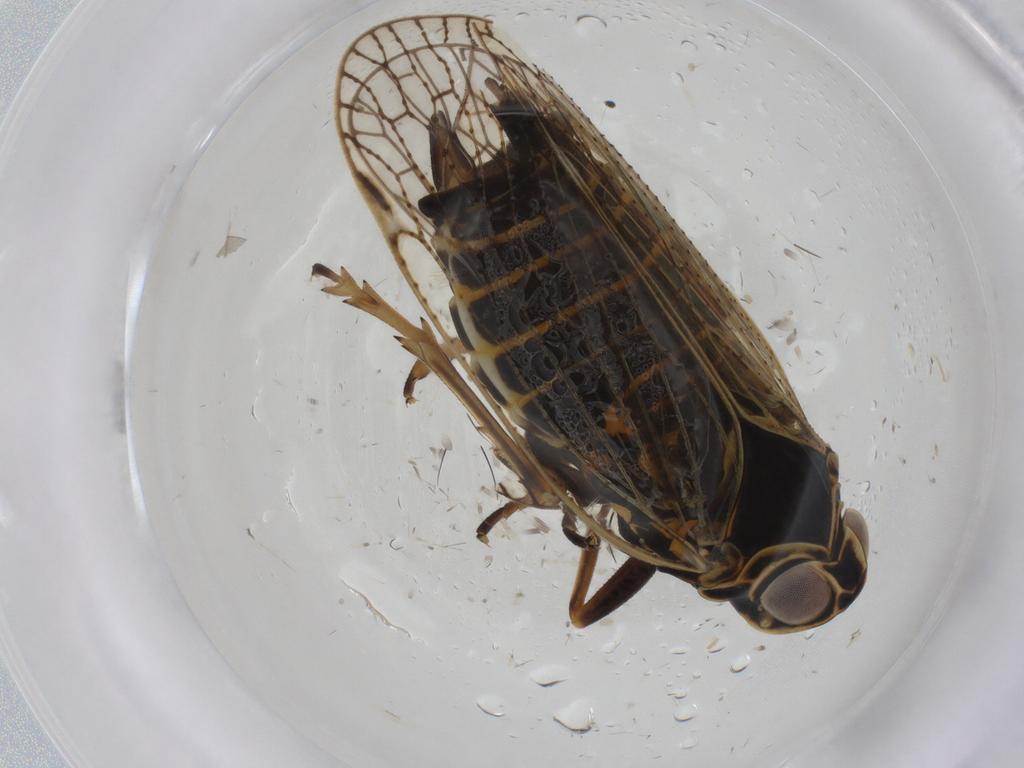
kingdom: Animalia
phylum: Arthropoda
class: Insecta
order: Hemiptera
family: Cixiidae
